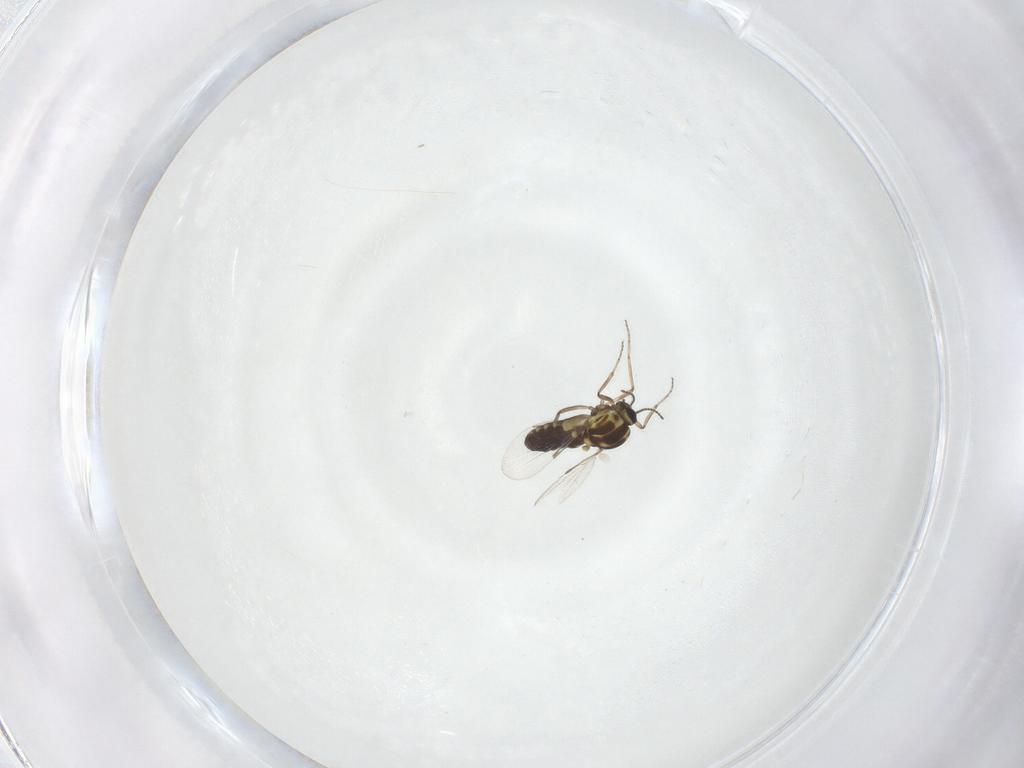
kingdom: Animalia
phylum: Arthropoda
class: Insecta
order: Diptera
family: Ceratopogonidae
